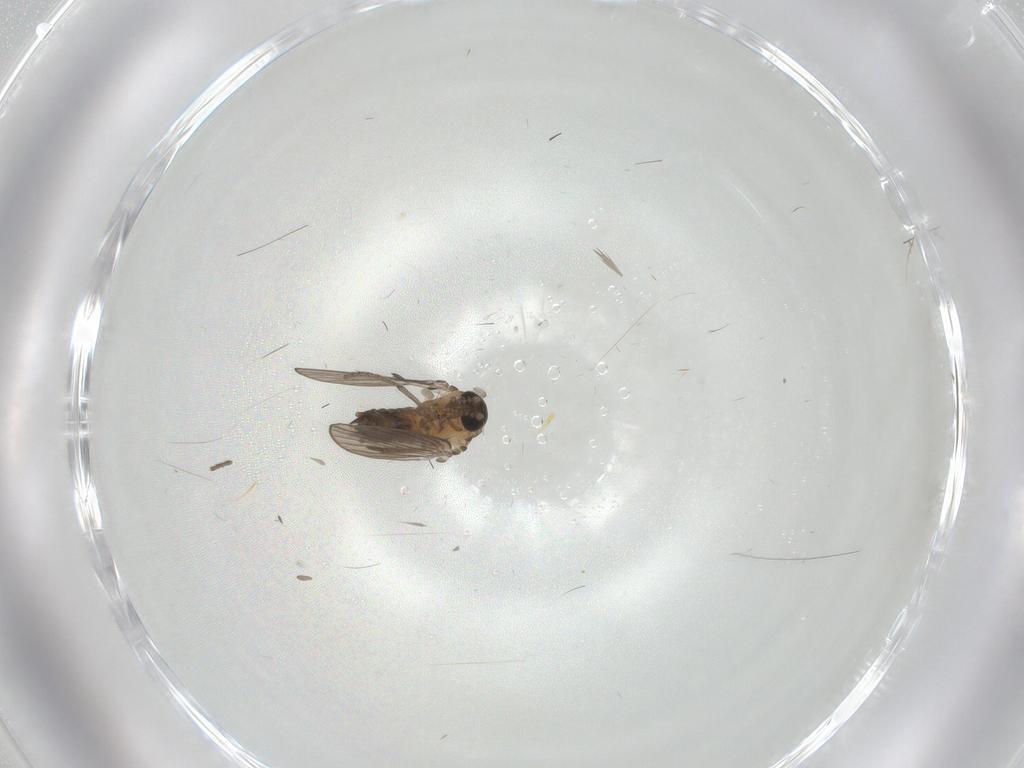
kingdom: Animalia
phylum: Arthropoda
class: Insecta
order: Diptera
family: Psychodidae
